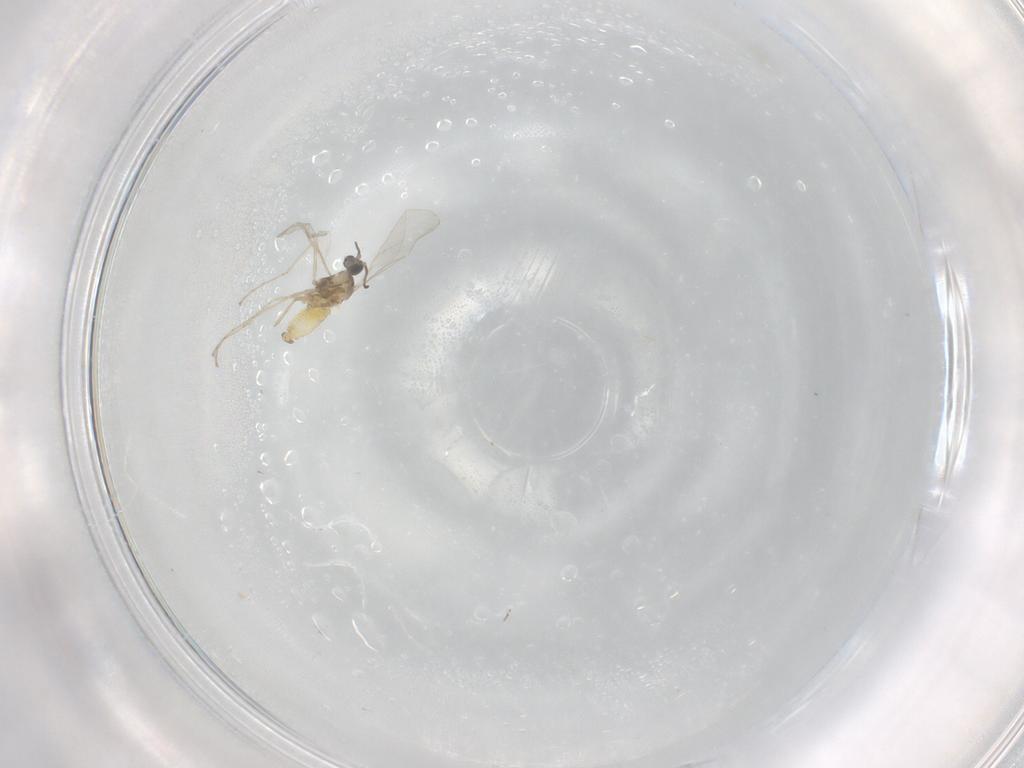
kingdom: Animalia
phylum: Arthropoda
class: Insecta
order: Diptera
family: Cecidomyiidae
